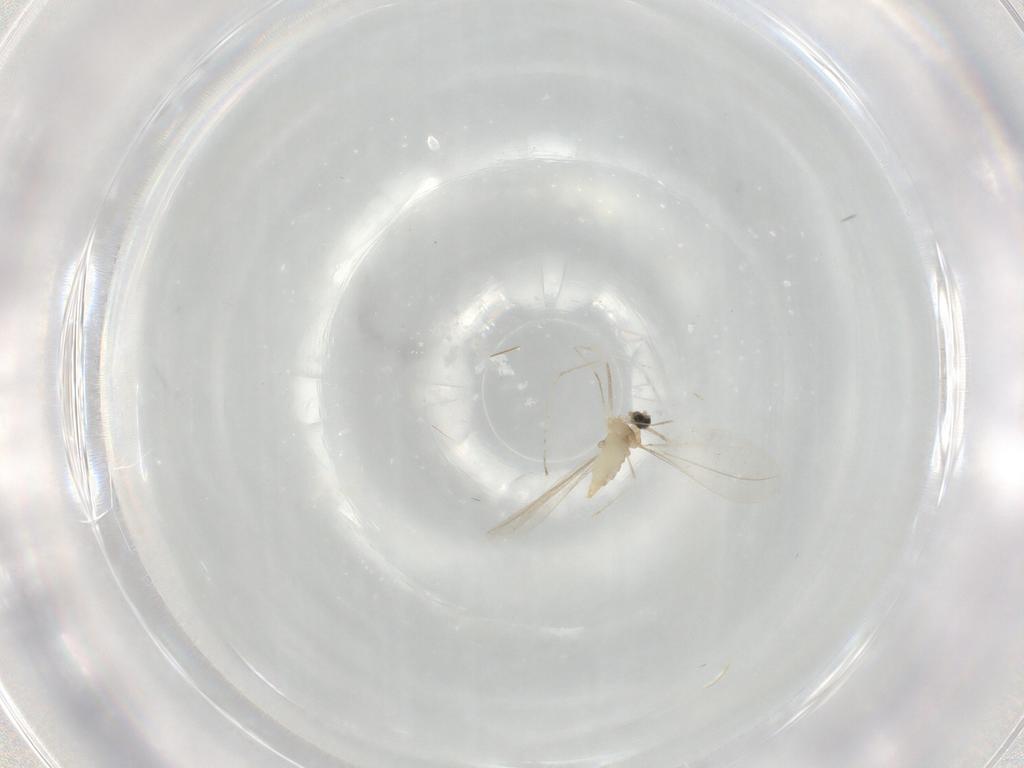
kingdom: Animalia
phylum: Arthropoda
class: Insecta
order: Diptera
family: Cecidomyiidae
